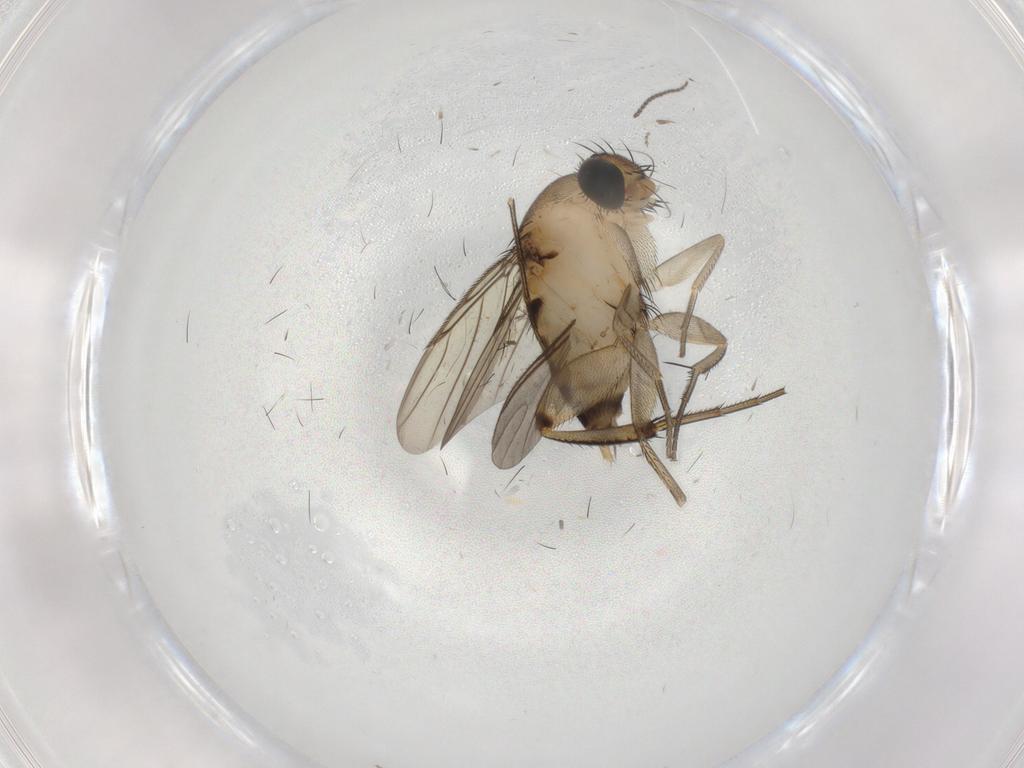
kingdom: Animalia
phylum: Arthropoda
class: Insecta
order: Diptera
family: Phoridae
